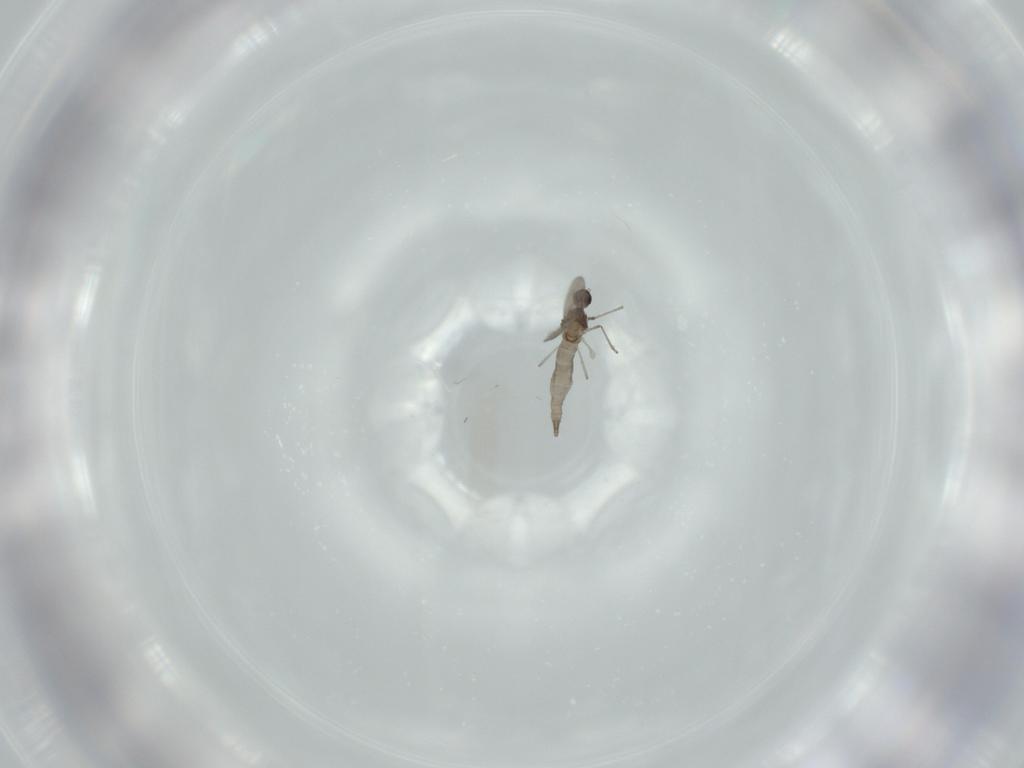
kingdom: Animalia
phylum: Arthropoda
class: Insecta
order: Diptera
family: Cecidomyiidae
